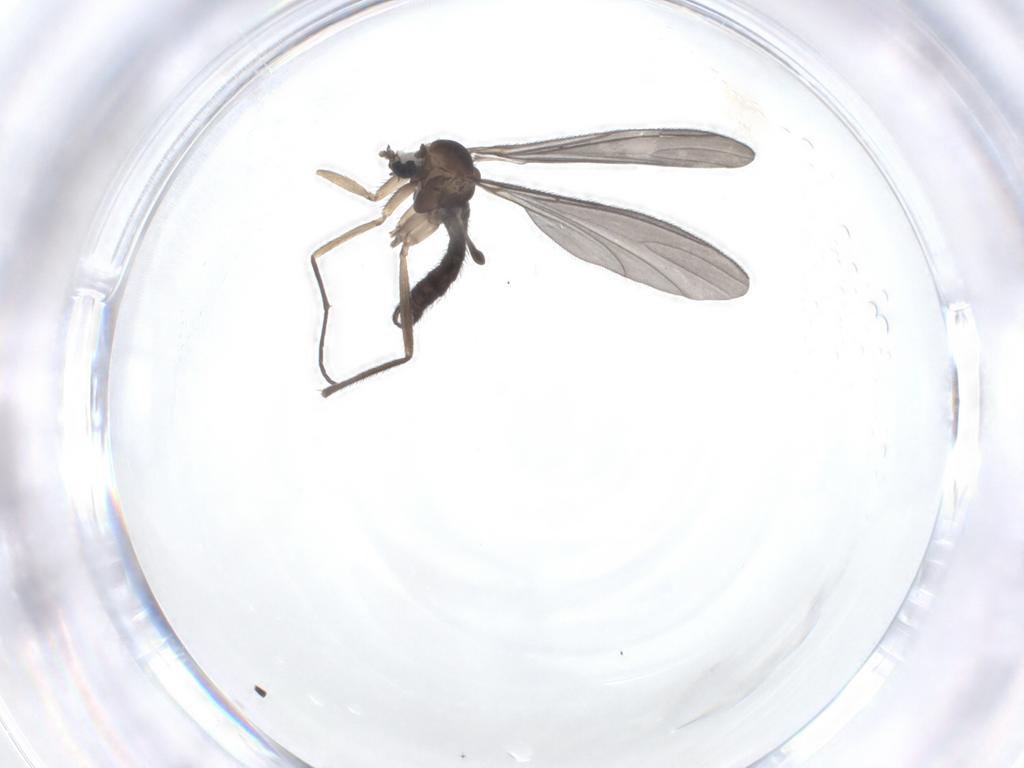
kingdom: Animalia
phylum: Arthropoda
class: Insecta
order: Diptera
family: Sciaridae
